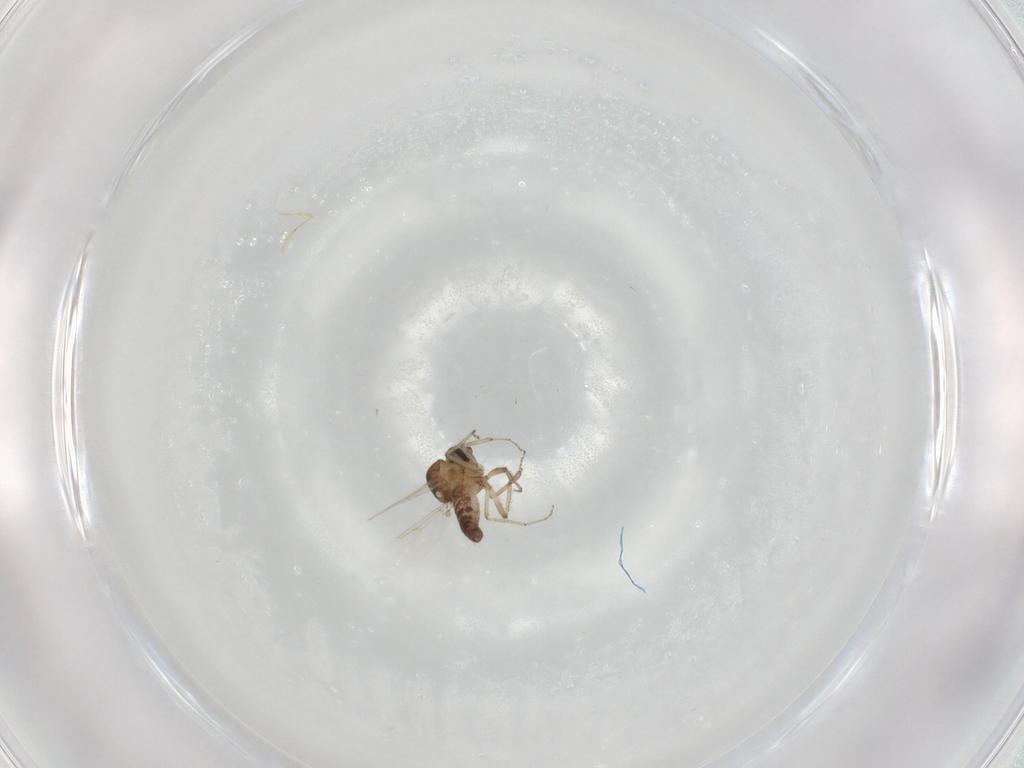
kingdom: Animalia
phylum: Arthropoda
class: Insecta
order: Diptera
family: Ceratopogonidae
